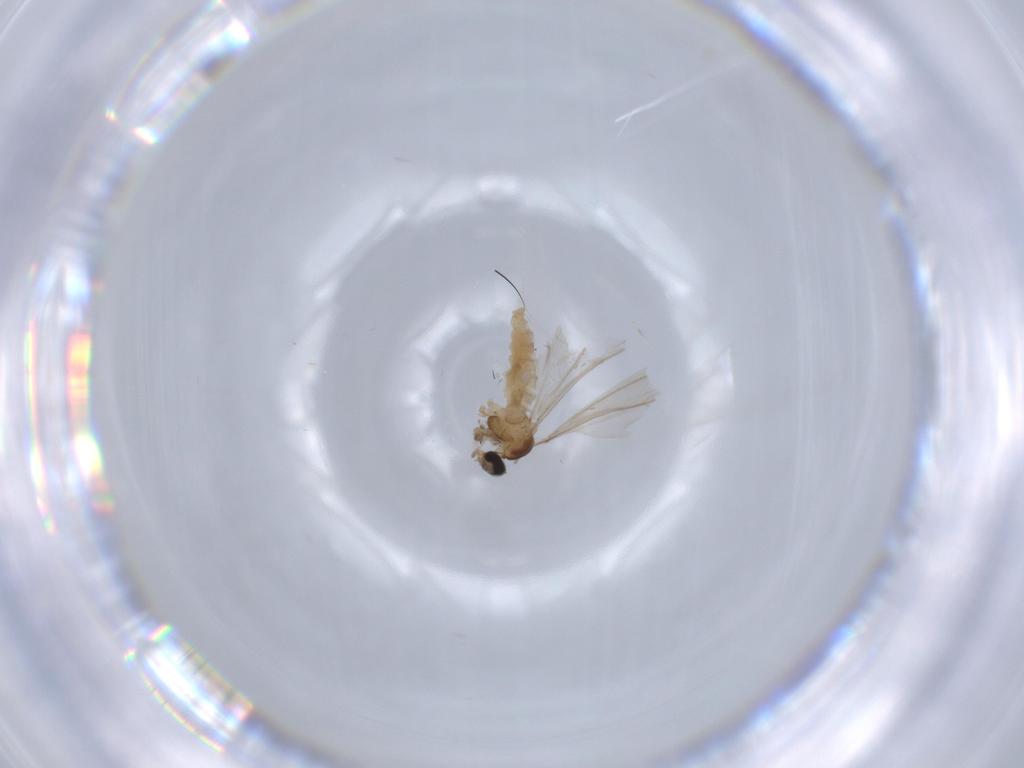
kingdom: Animalia
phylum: Arthropoda
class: Insecta
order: Diptera
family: Cecidomyiidae
